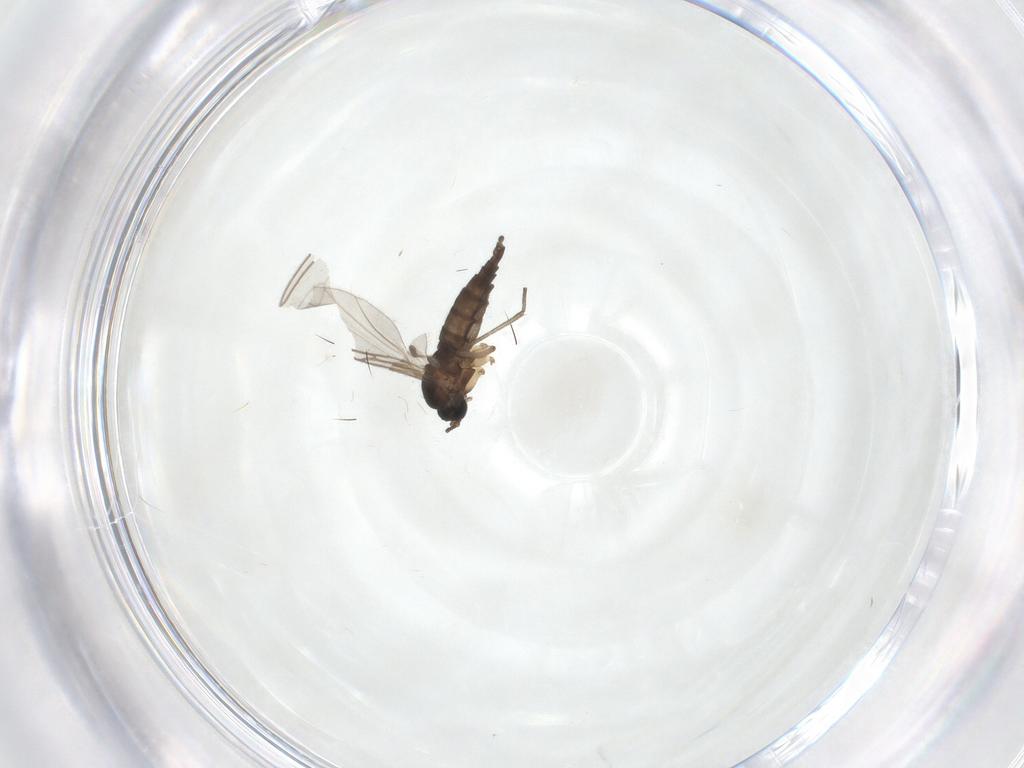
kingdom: Animalia
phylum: Arthropoda
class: Insecta
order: Diptera
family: Sciaridae
